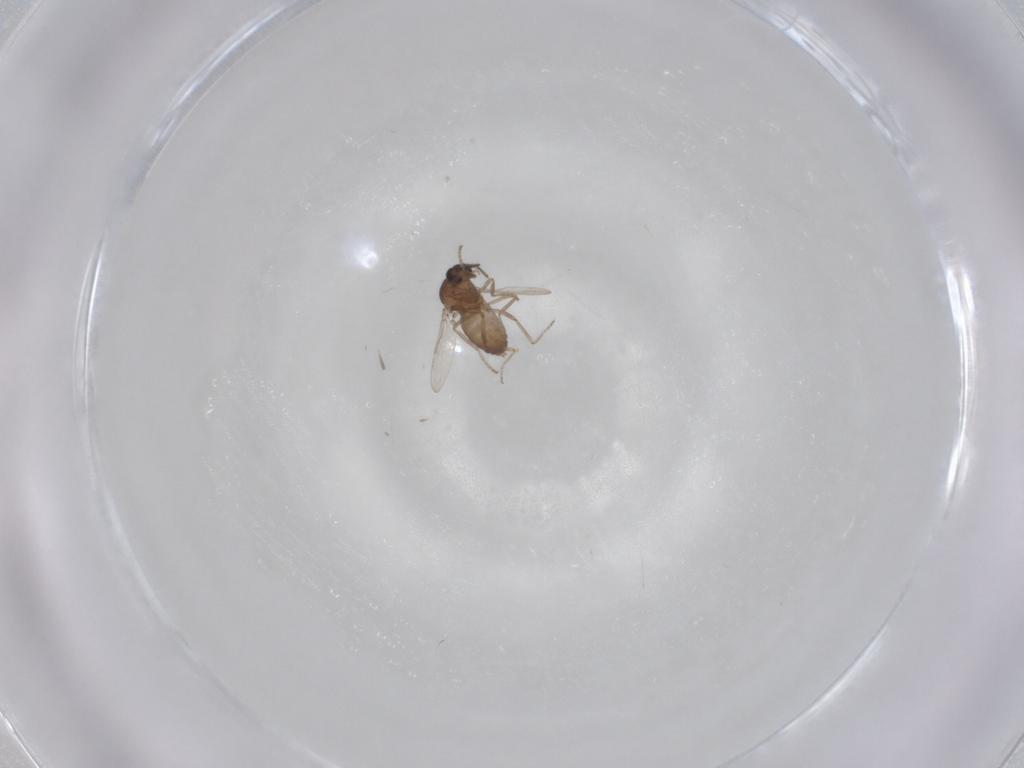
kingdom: Animalia
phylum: Arthropoda
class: Insecta
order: Diptera
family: Ceratopogonidae
